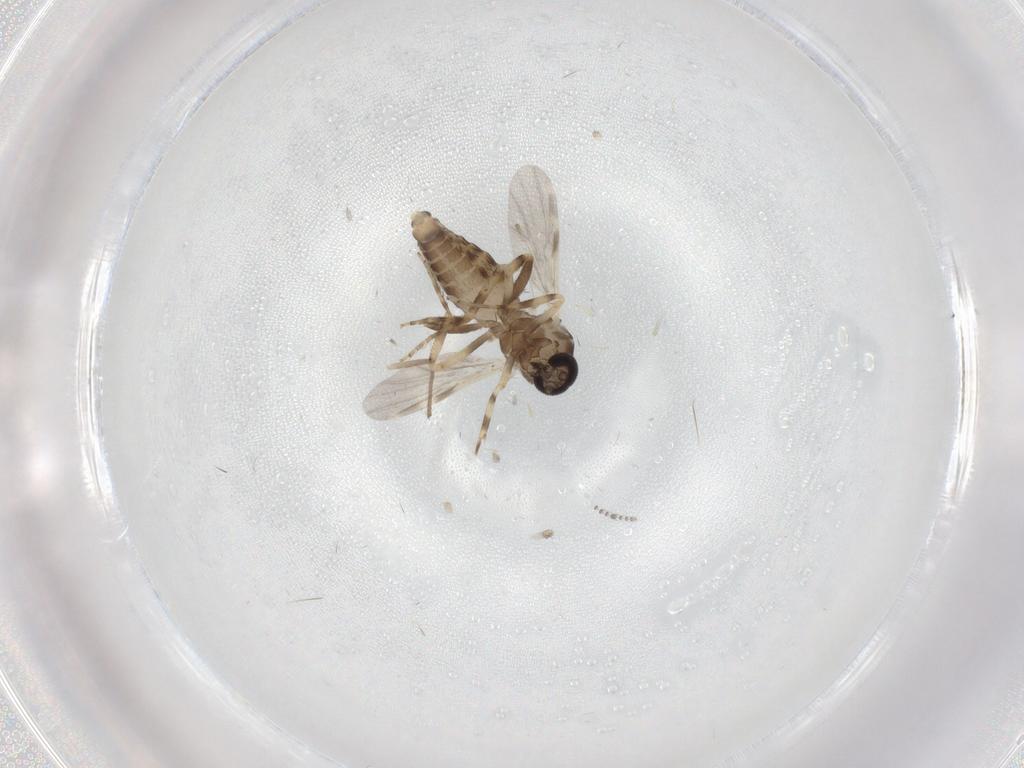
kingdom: Animalia
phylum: Arthropoda
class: Insecta
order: Diptera
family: Ceratopogonidae
